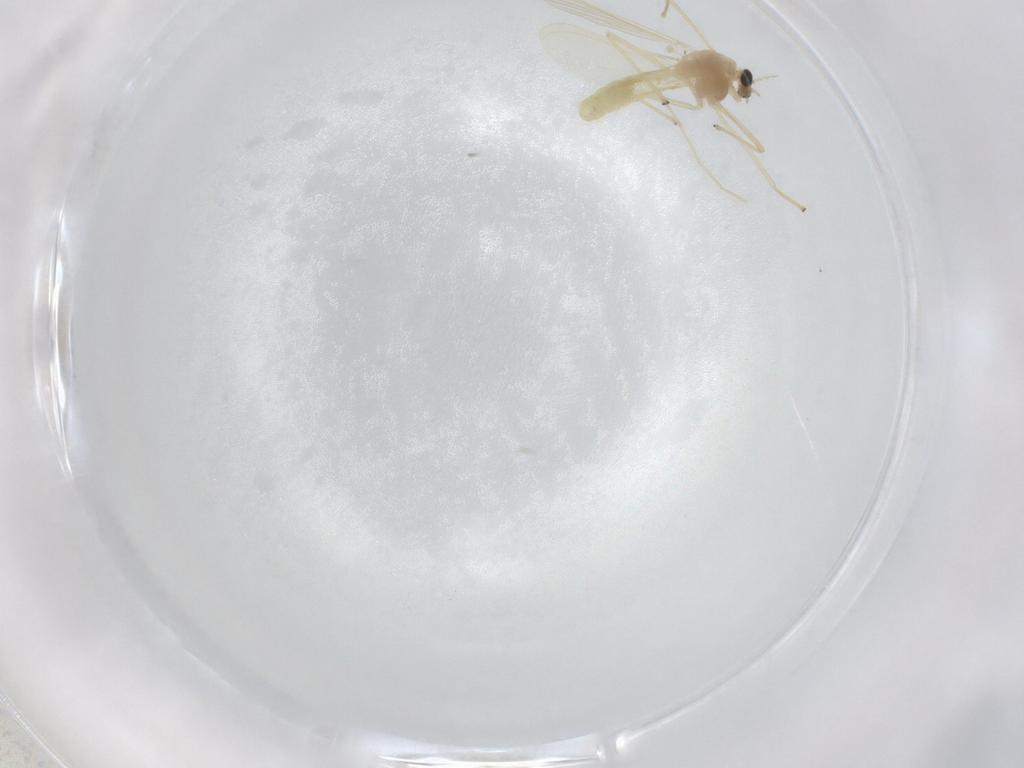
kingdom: Animalia
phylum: Arthropoda
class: Insecta
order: Diptera
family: Chironomidae
